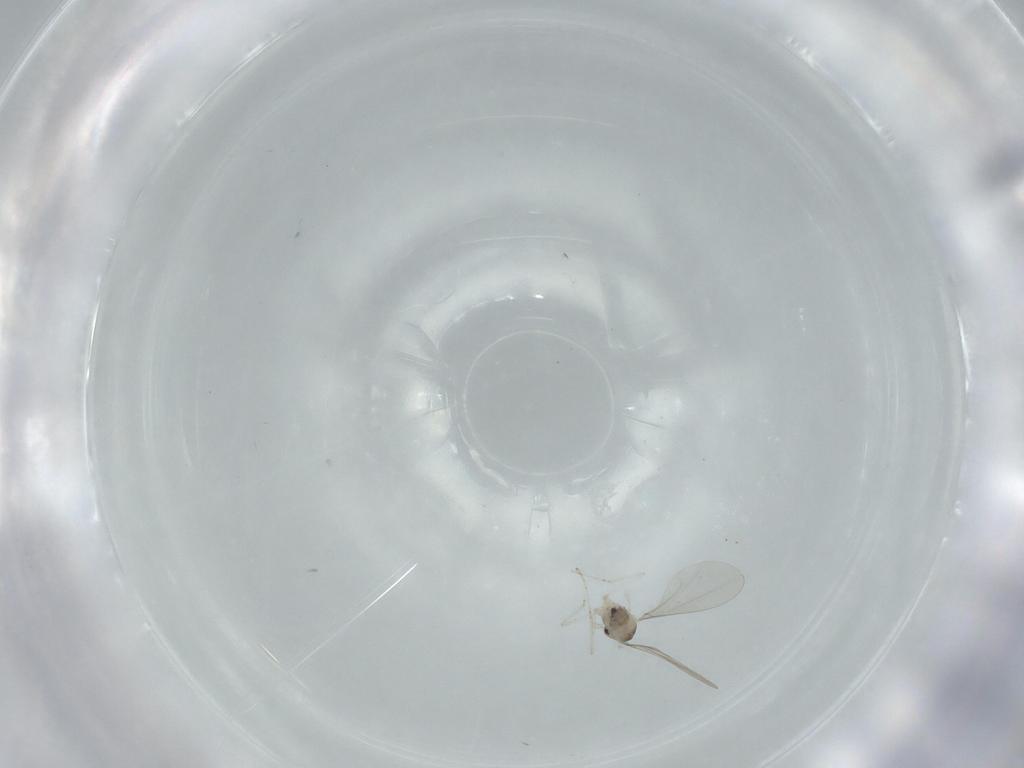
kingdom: Animalia
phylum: Arthropoda
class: Insecta
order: Diptera
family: Cecidomyiidae
